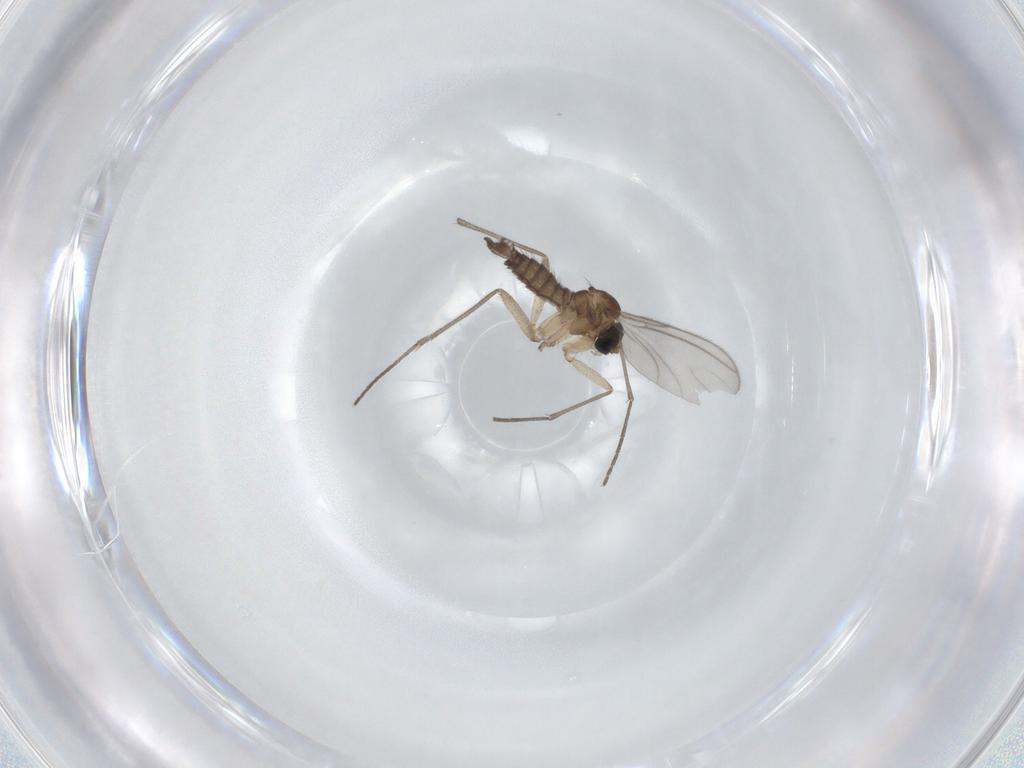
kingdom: Animalia
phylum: Arthropoda
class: Insecta
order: Diptera
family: Sciaridae
